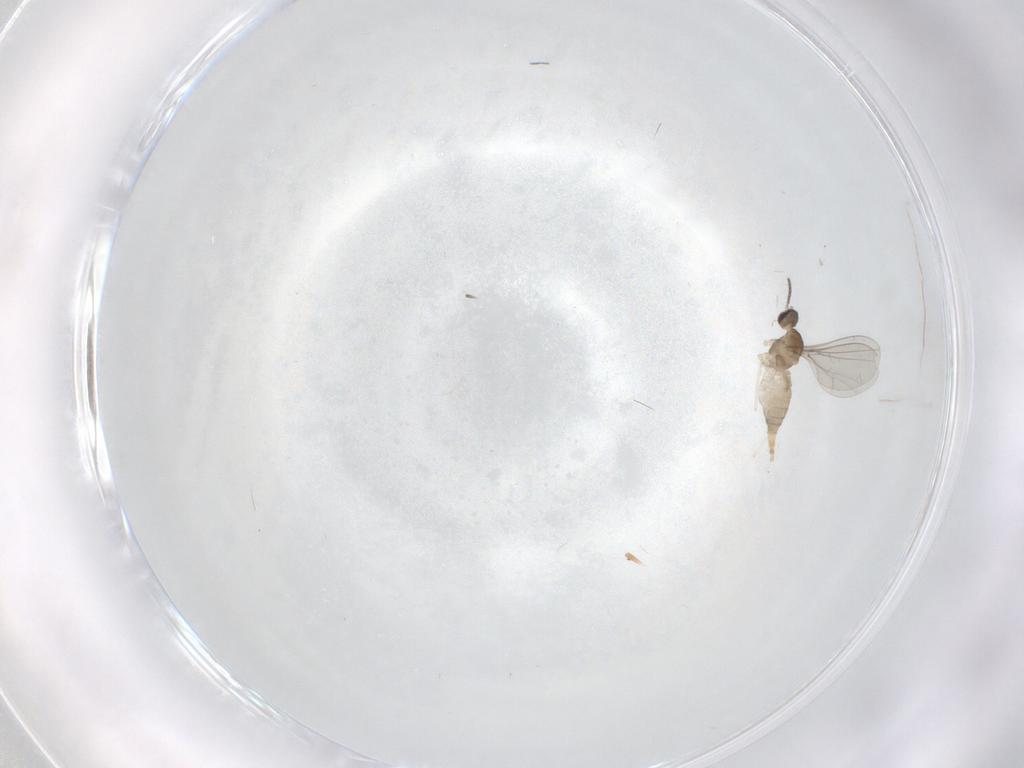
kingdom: Animalia
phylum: Arthropoda
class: Insecta
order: Diptera
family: Cecidomyiidae
